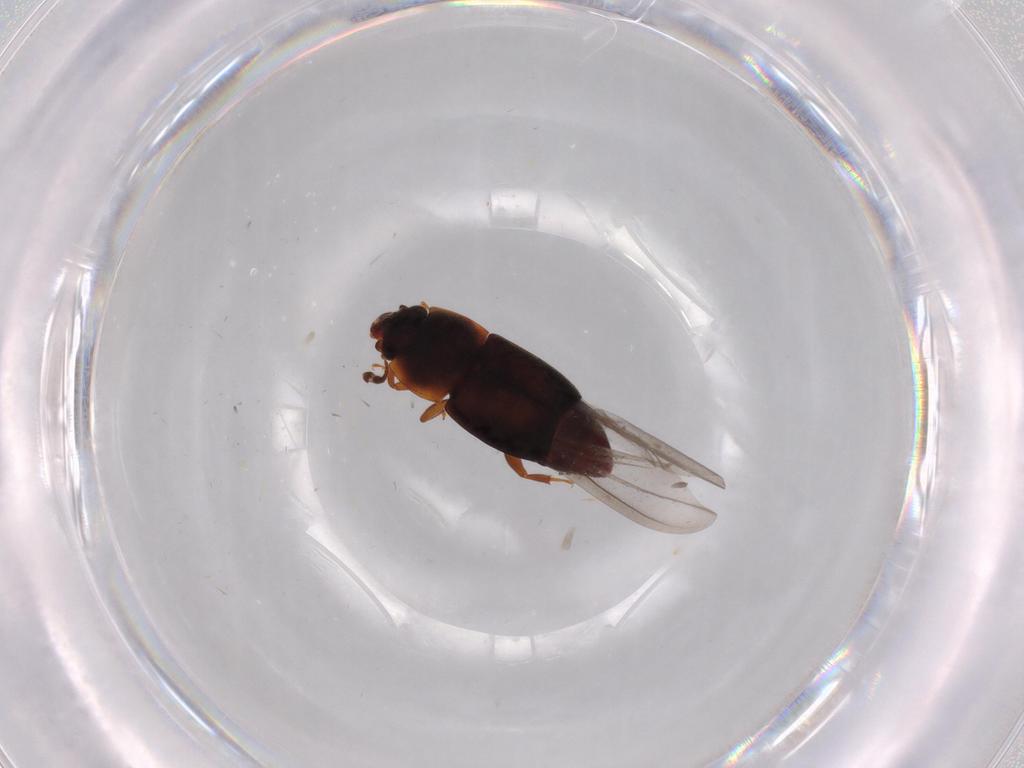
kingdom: Animalia
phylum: Arthropoda
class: Insecta
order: Coleoptera
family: Nitidulidae
